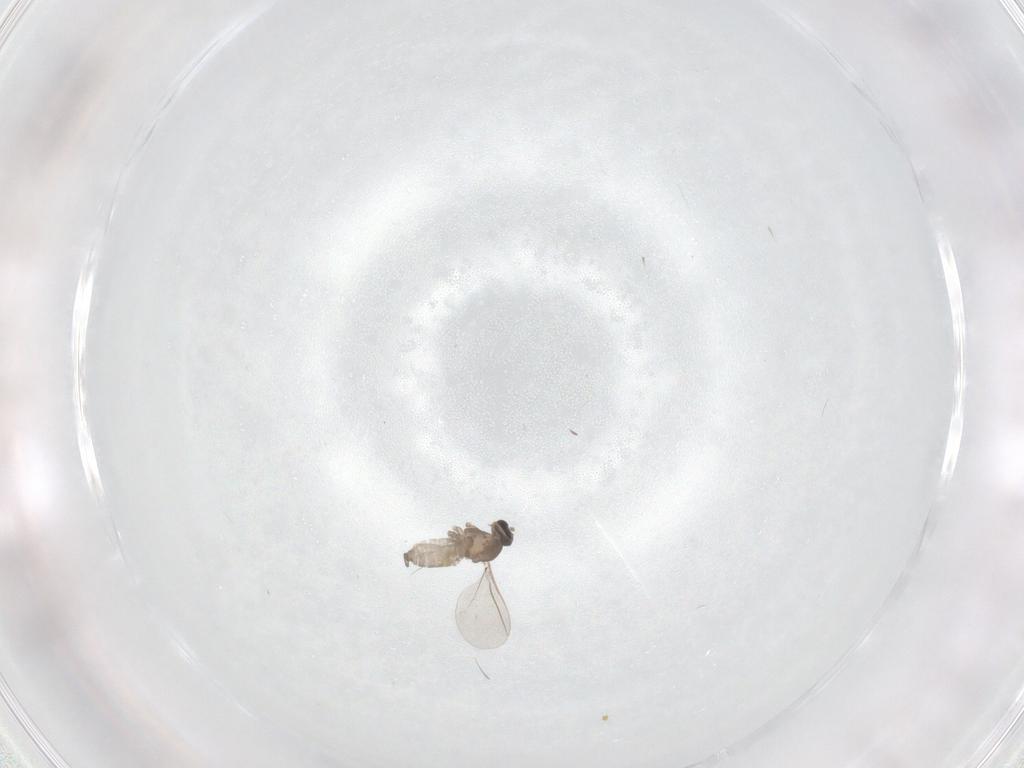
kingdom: Animalia
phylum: Arthropoda
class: Insecta
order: Diptera
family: Cecidomyiidae
